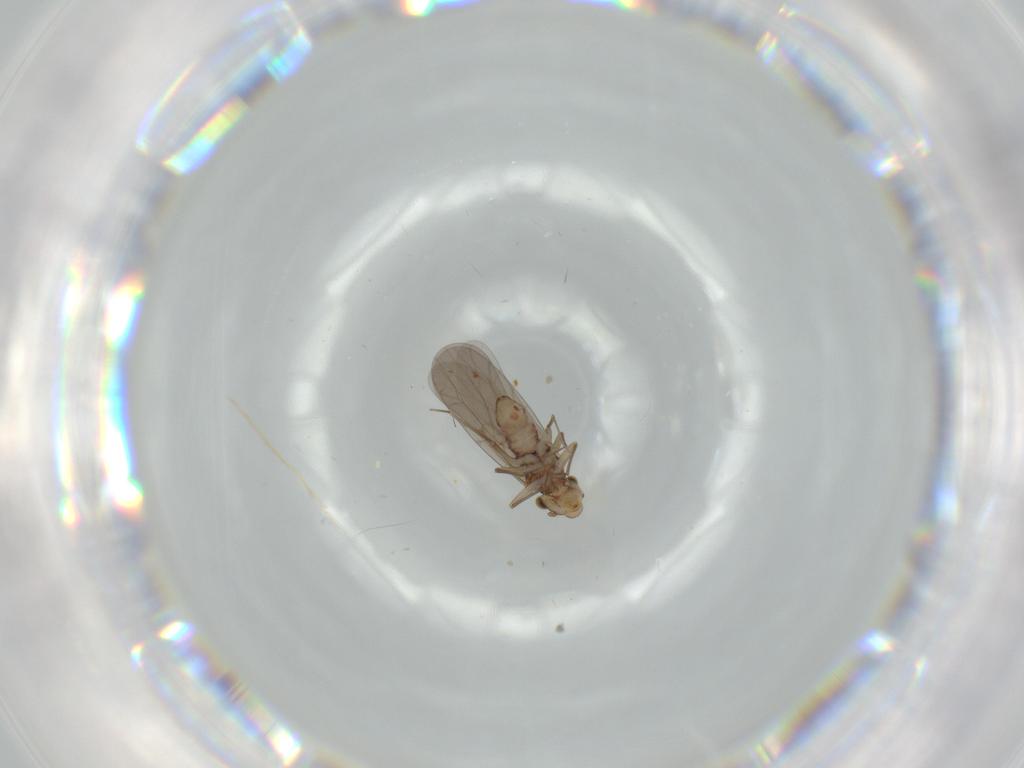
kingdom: Animalia
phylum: Arthropoda
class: Insecta
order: Psocodea
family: Lepidopsocidae
